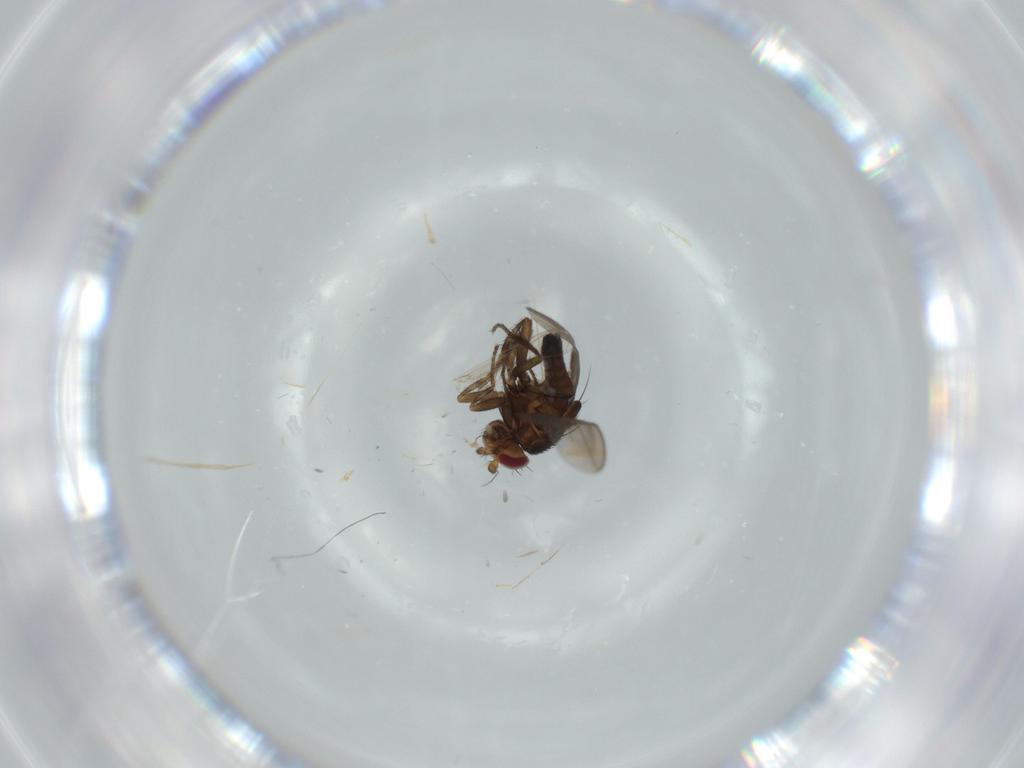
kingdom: Animalia
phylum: Arthropoda
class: Insecta
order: Diptera
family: Chironomidae
